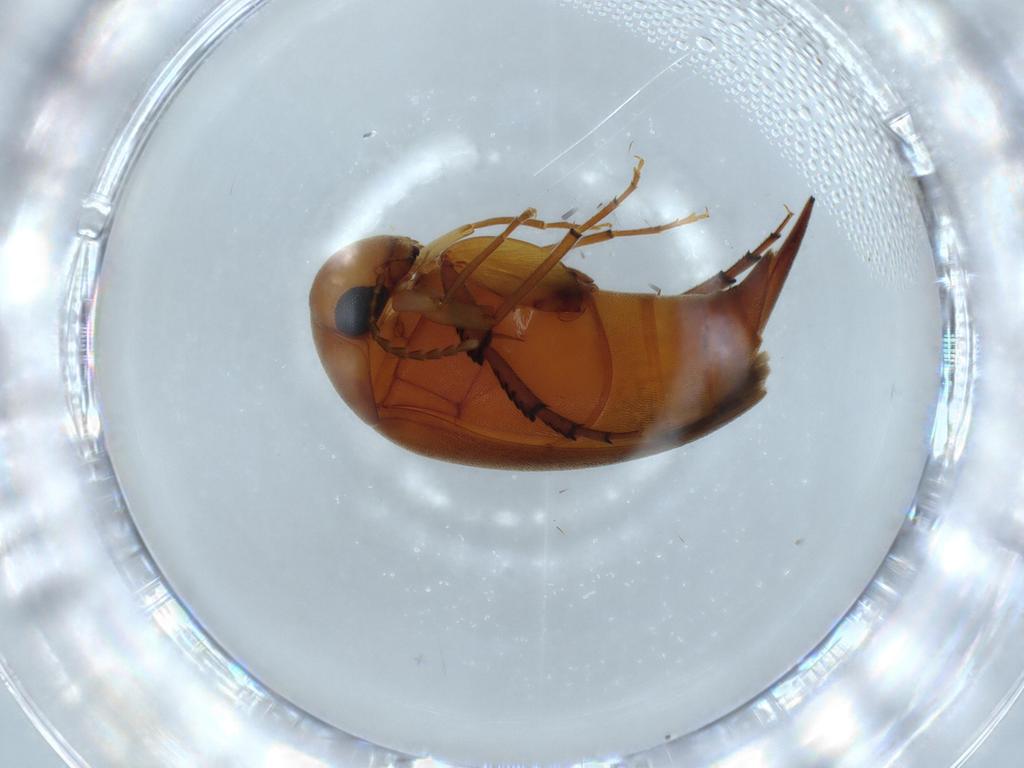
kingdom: Animalia
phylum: Arthropoda
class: Insecta
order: Coleoptera
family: Mordellidae
